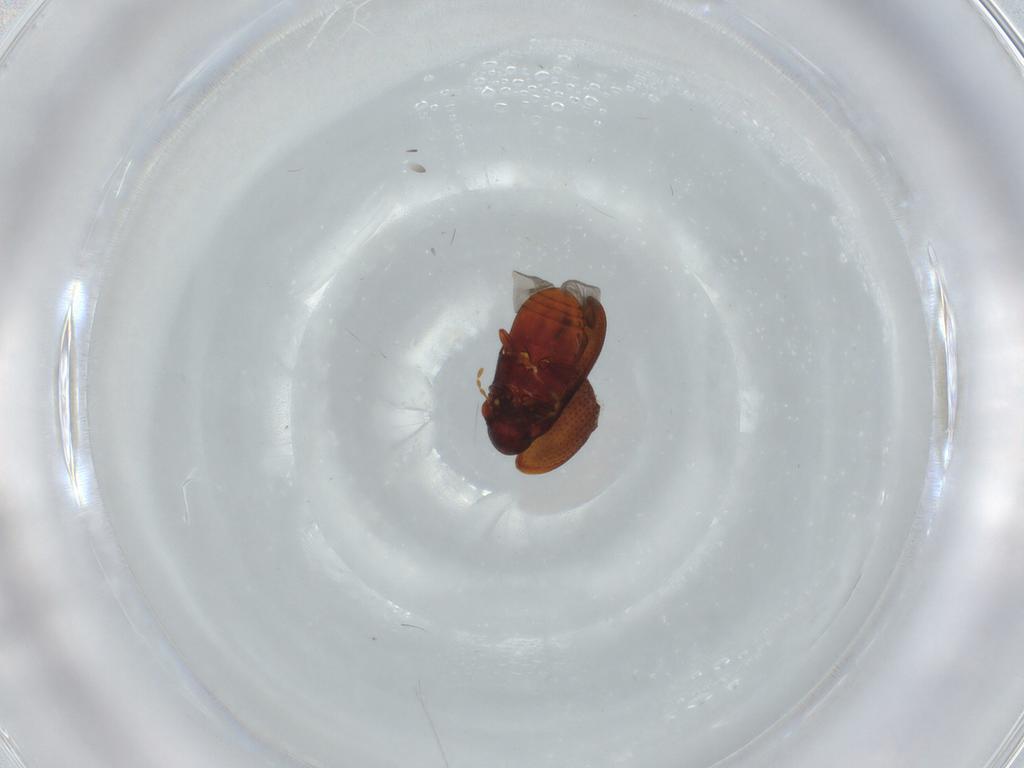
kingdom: Animalia
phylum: Arthropoda
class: Insecta
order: Coleoptera
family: Ptinidae
